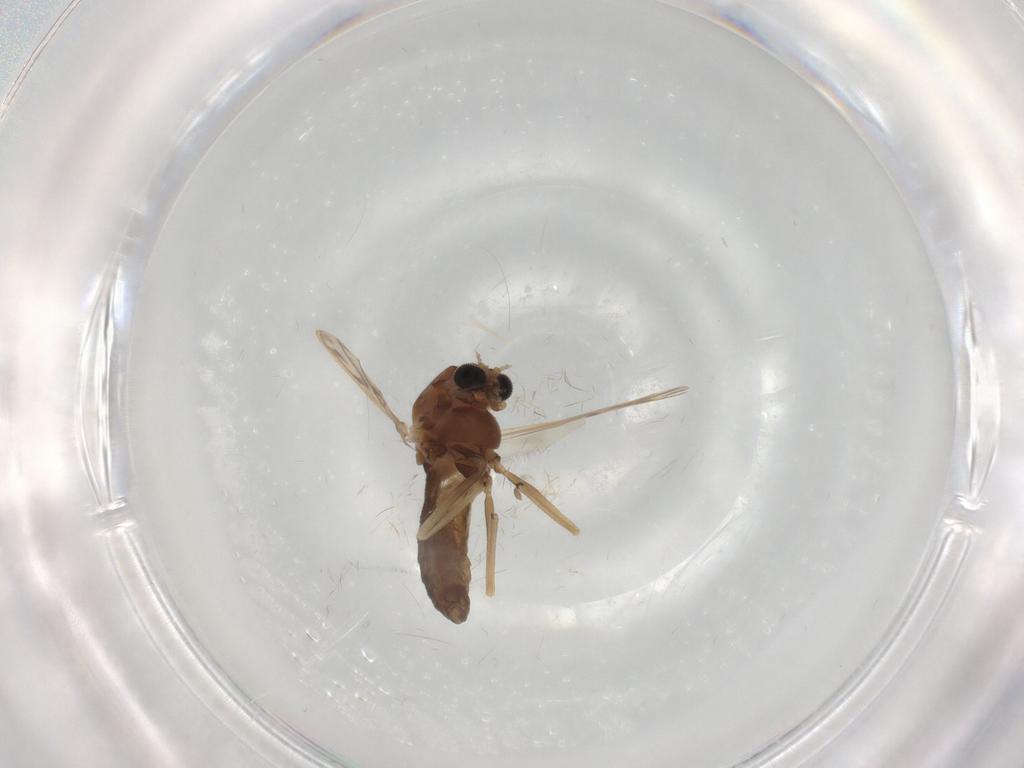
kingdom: Animalia
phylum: Arthropoda
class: Insecta
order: Diptera
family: Chironomidae
